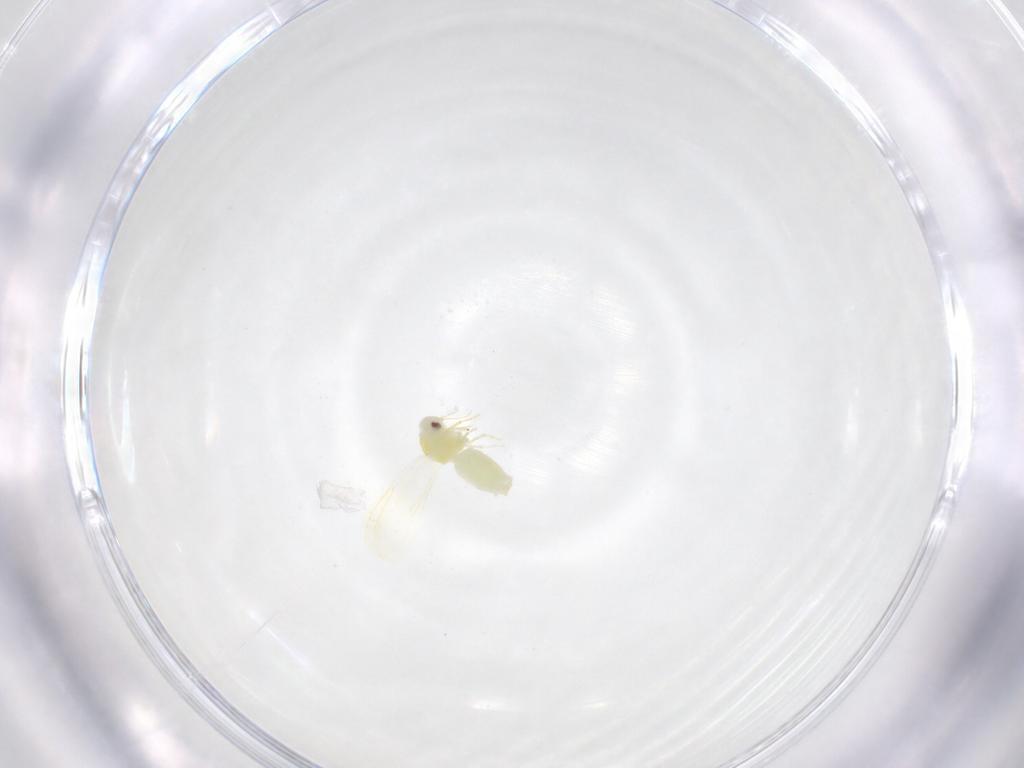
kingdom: Animalia
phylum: Arthropoda
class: Insecta
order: Hemiptera
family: Aleyrodidae
